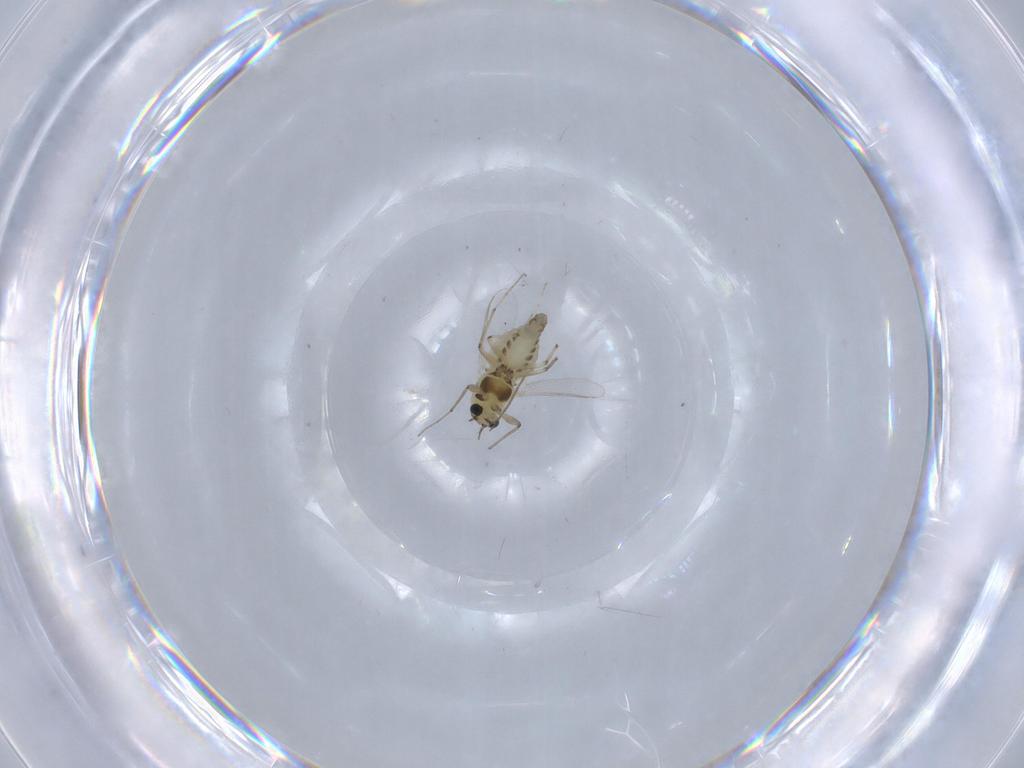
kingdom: Animalia
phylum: Arthropoda
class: Insecta
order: Diptera
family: Chironomidae
